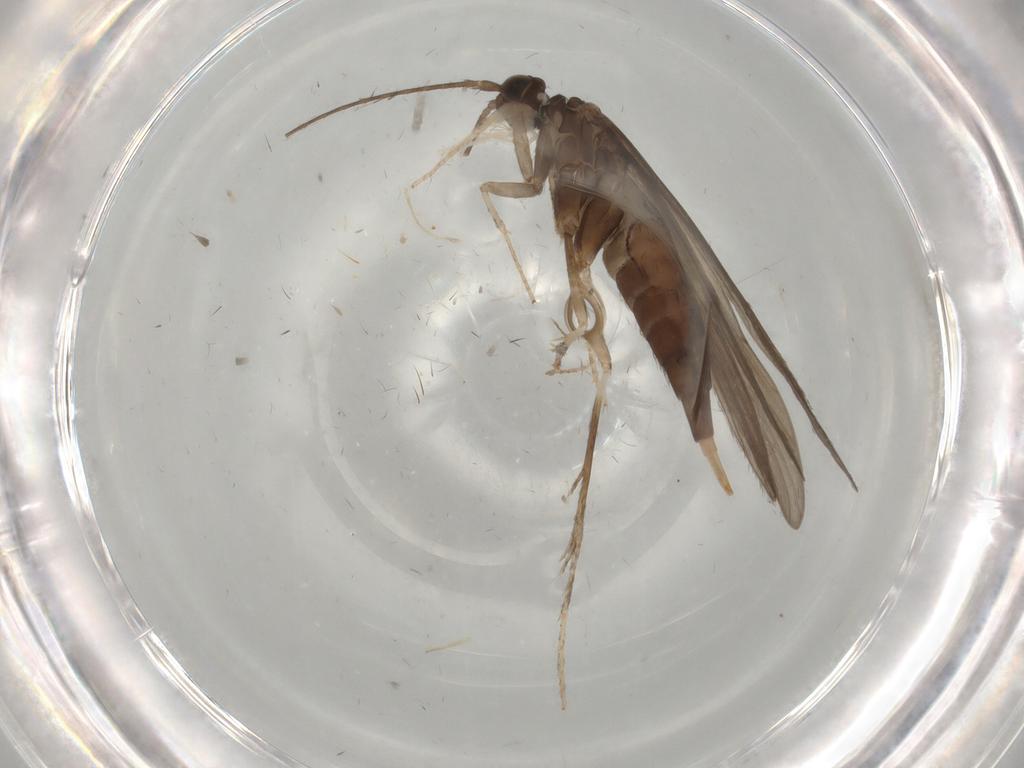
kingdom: Animalia
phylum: Arthropoda
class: Insecta
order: Trichoptera
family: Xiphocentronidae
